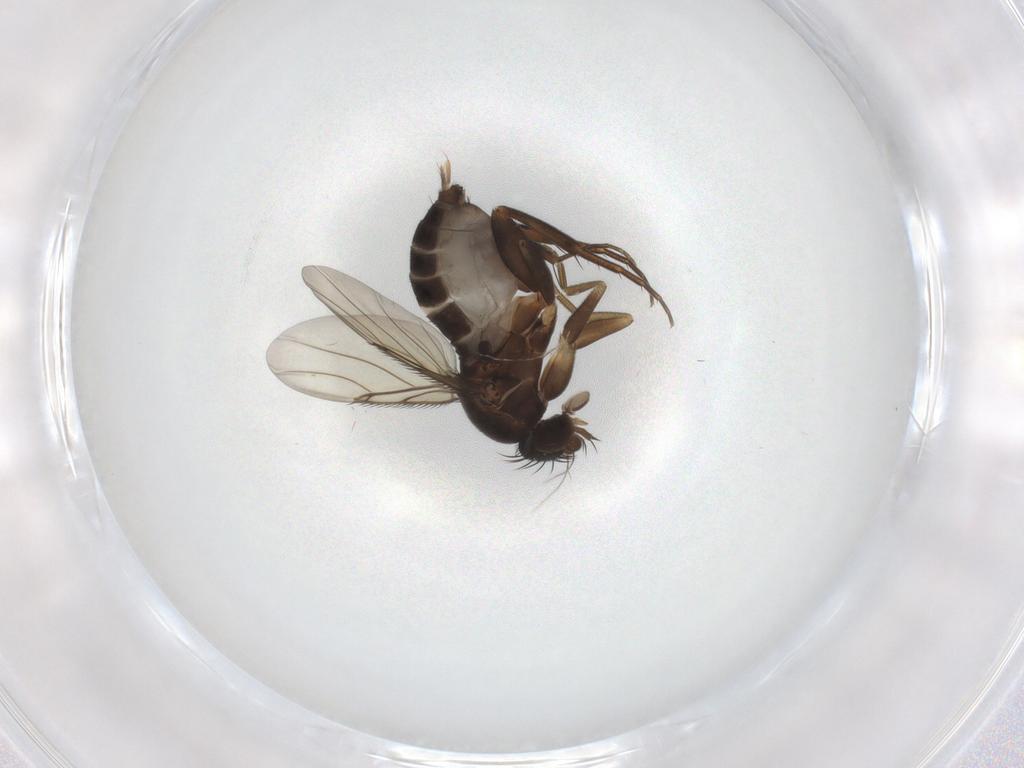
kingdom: Animalia
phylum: Arthropoda
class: Insecta
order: Diptera
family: Phoridae
